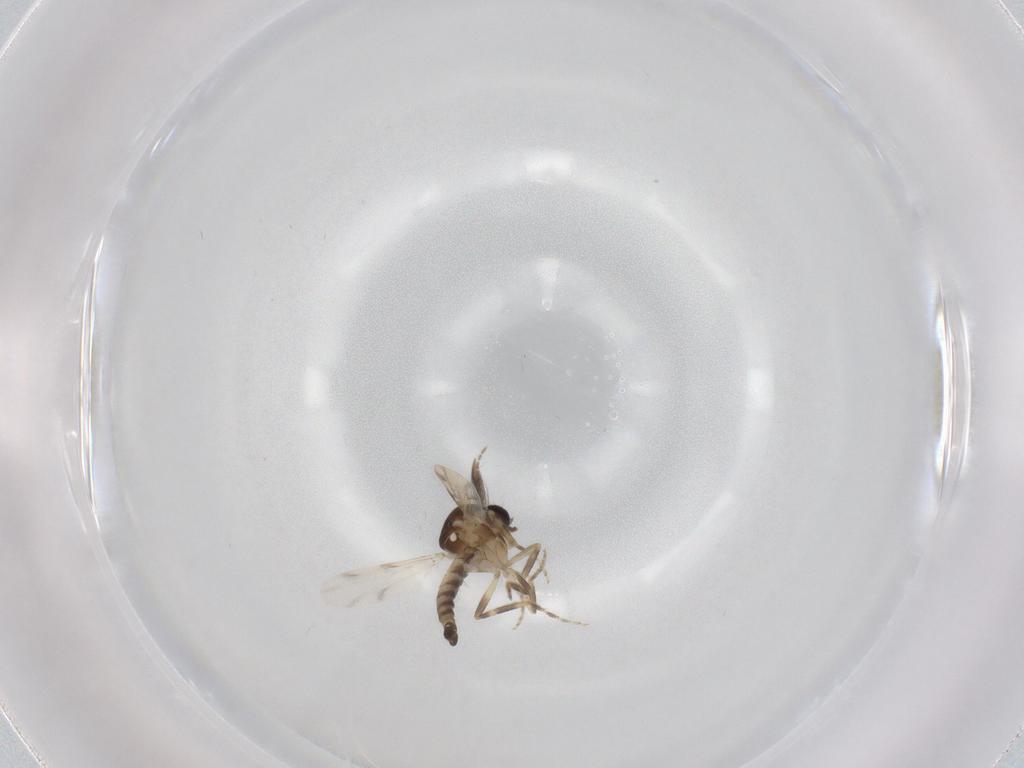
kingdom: Animalia
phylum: Arthropoda
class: Insecta
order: Diptera
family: Ceratopogonidae
